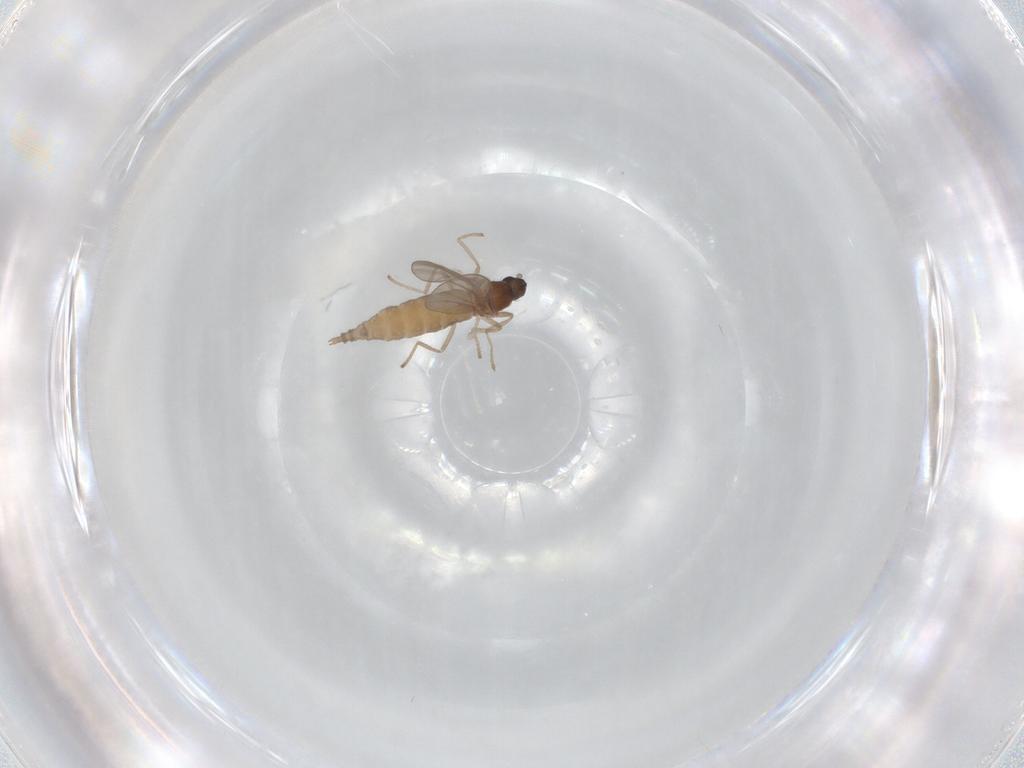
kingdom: Animalia
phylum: Arthropoda
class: Insecta
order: Diptera
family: Cecidomyiidae
